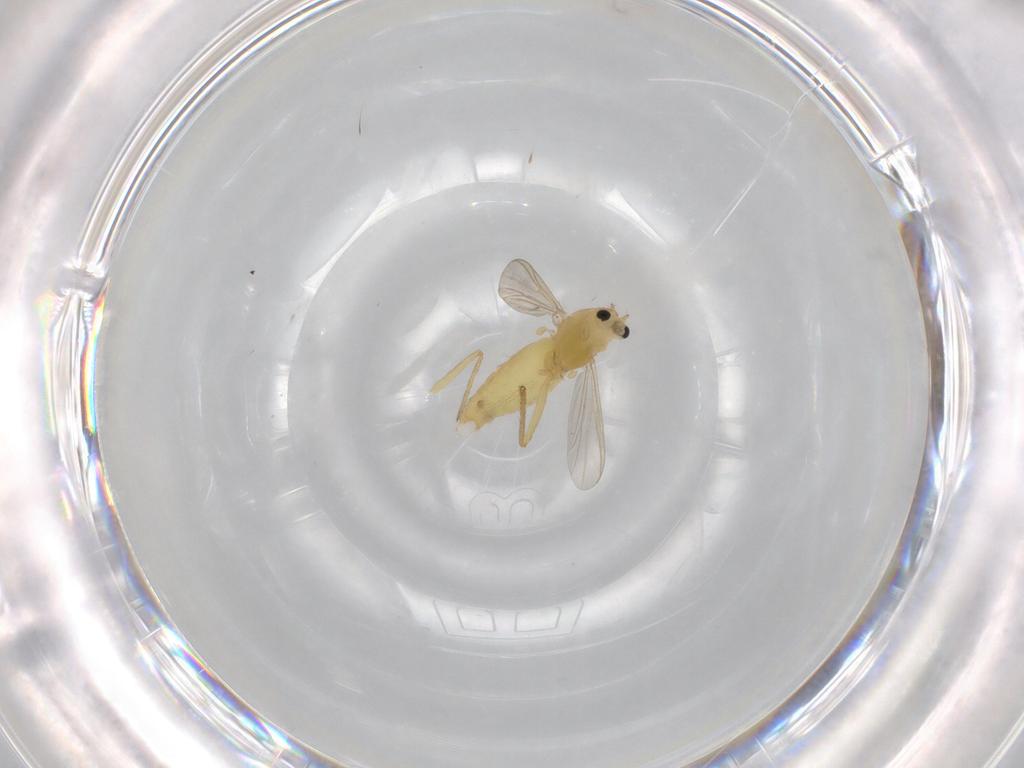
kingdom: Animalia
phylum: Arthropoda
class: Insecta
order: Diptera
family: Chironomidae
